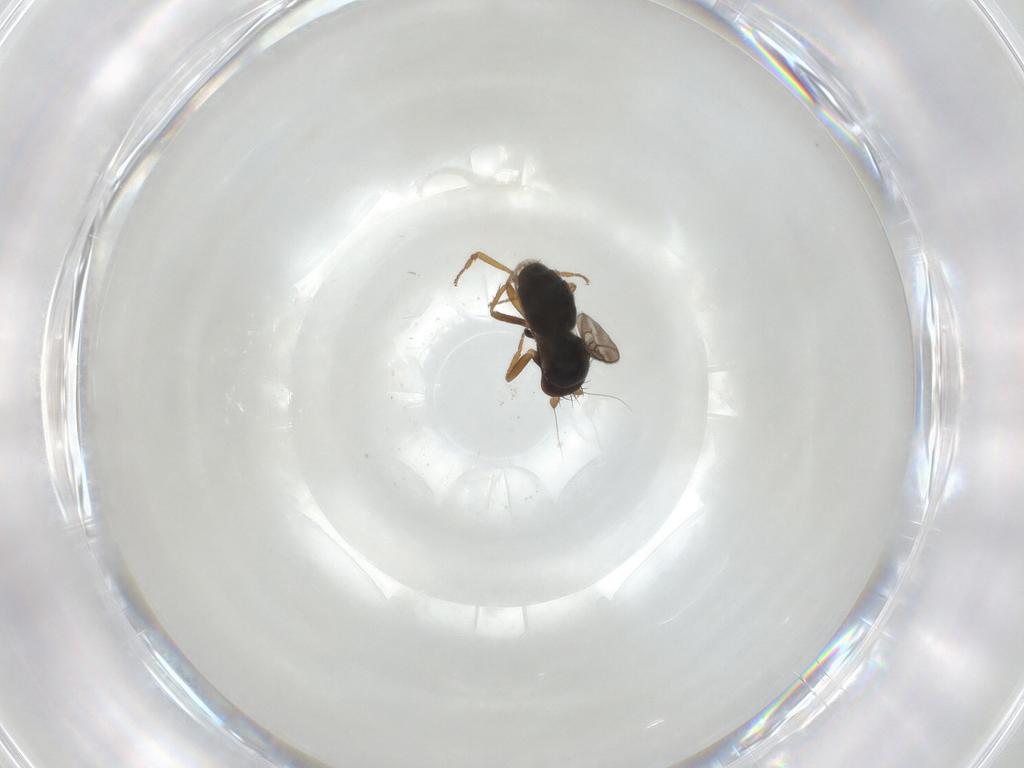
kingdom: Animalia
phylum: Arthropoda
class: Insecta
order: Diptera
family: Sphaeroceridae
